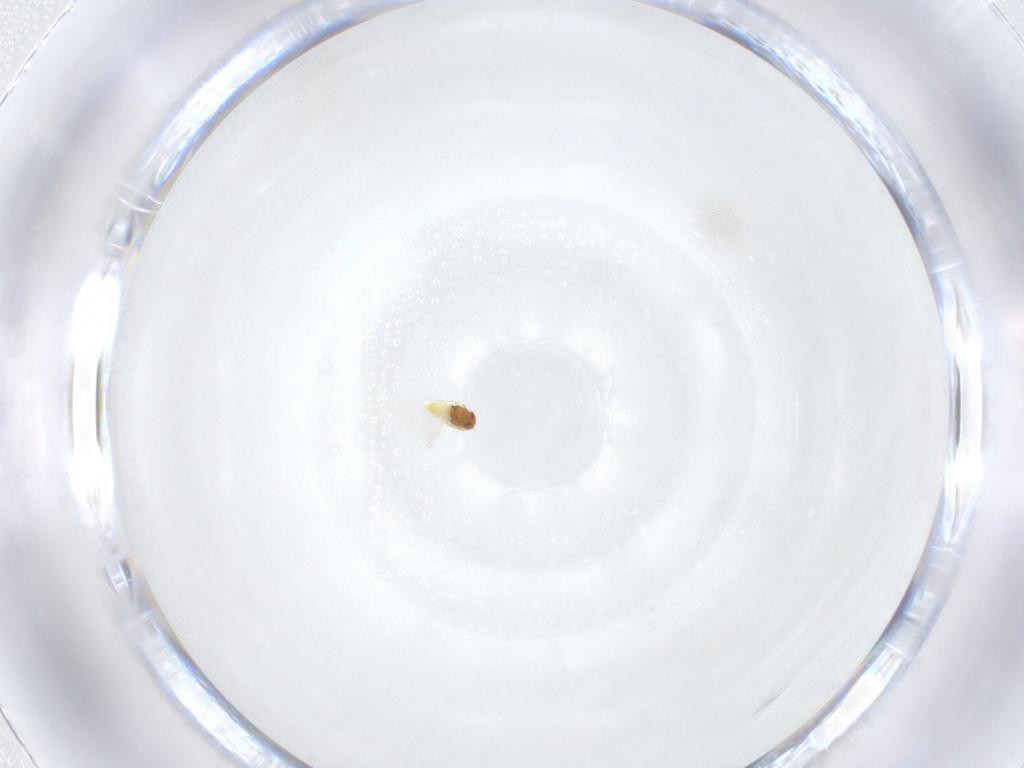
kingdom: Animalia
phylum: Arthropoda
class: Insecta
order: Hymenoptera
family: Aphelinidae
